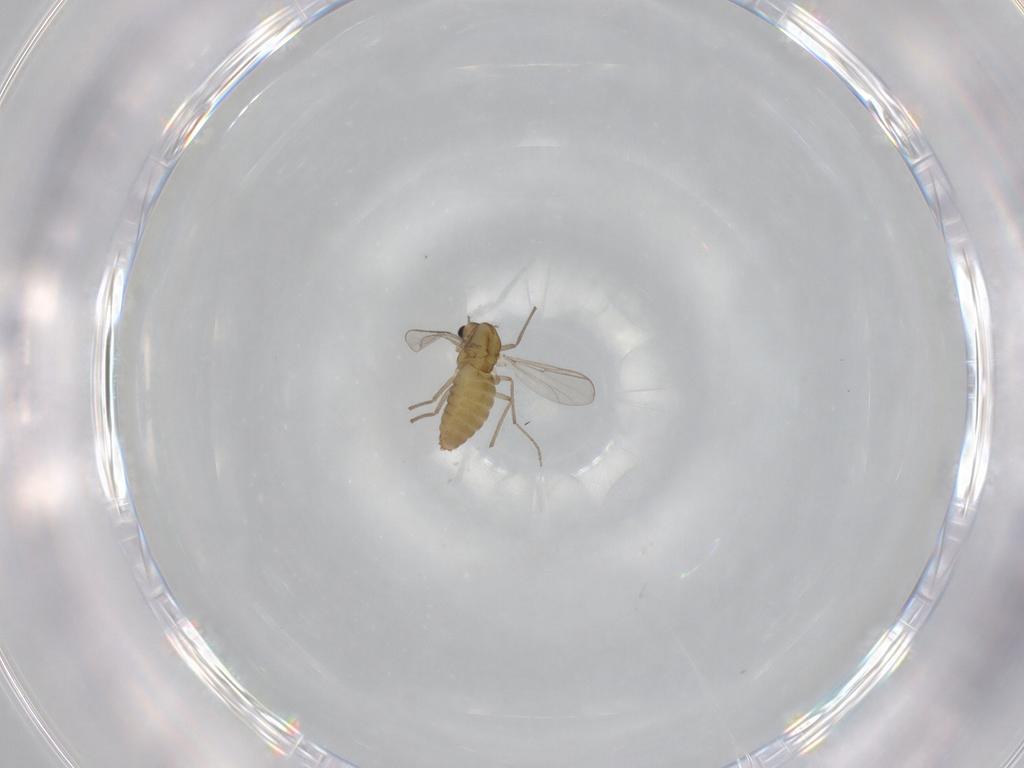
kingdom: Animalia
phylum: Arthropoda
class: Insecta
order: Diptera
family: Chironomidae
